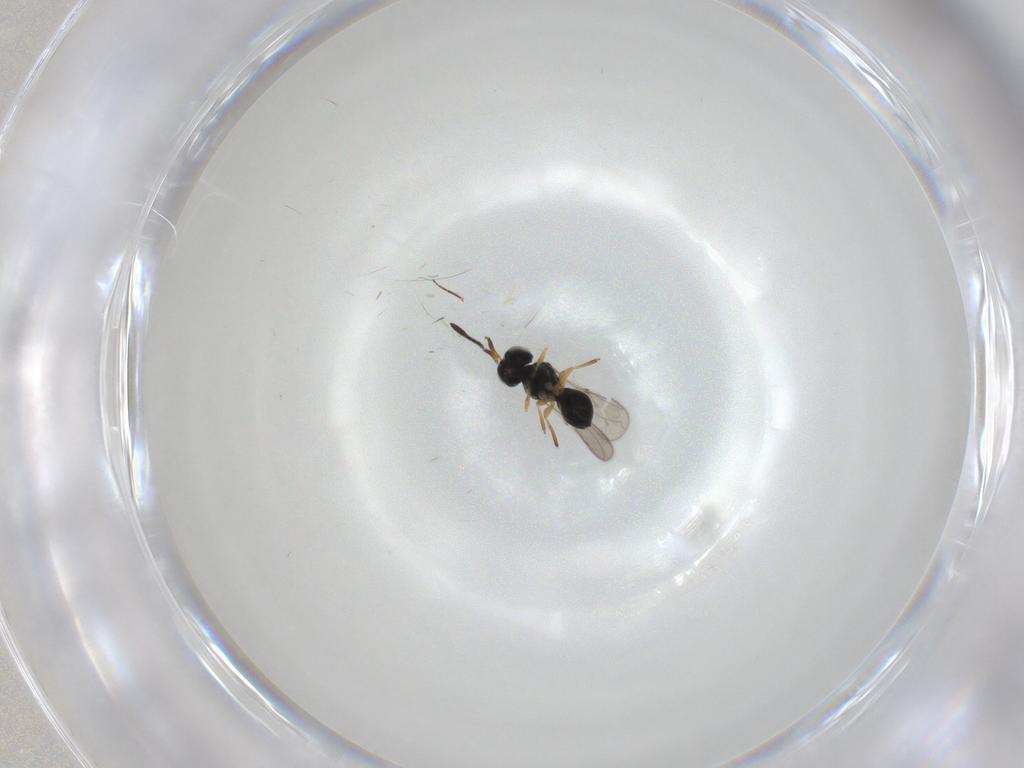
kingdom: Animalia
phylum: Arthropoda
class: Insecta
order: Hymenoptera
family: Scelionidae
